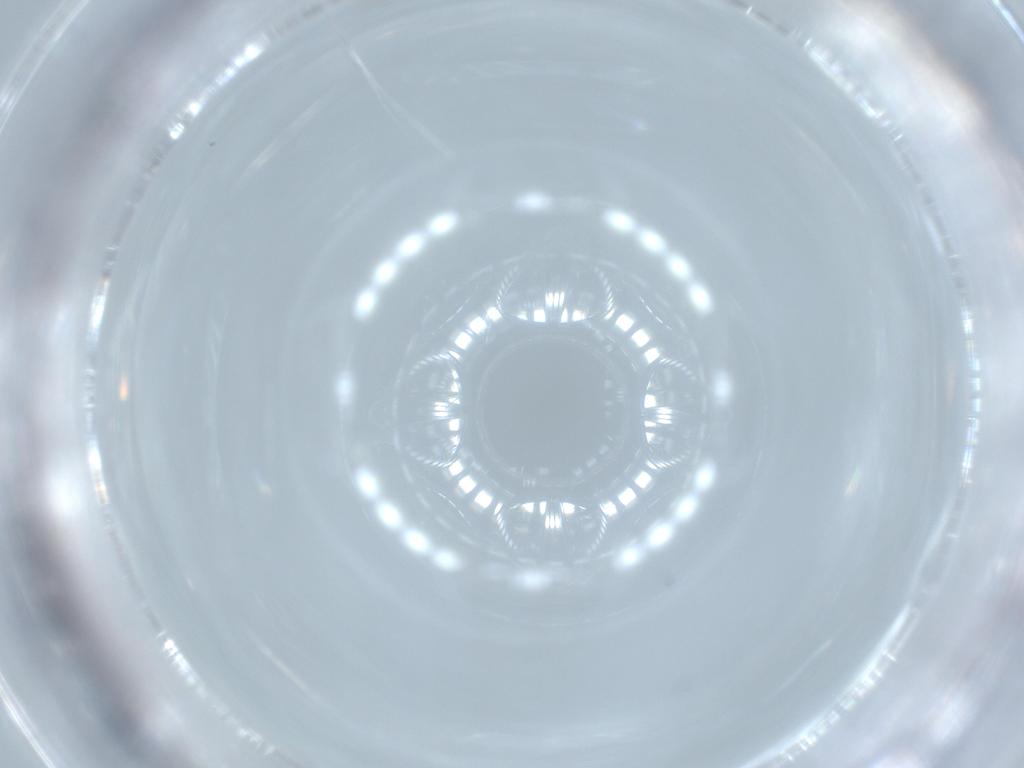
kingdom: Animalia
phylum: Arthropoda
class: Insecta
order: Diptera
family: Cecidomyiidae
